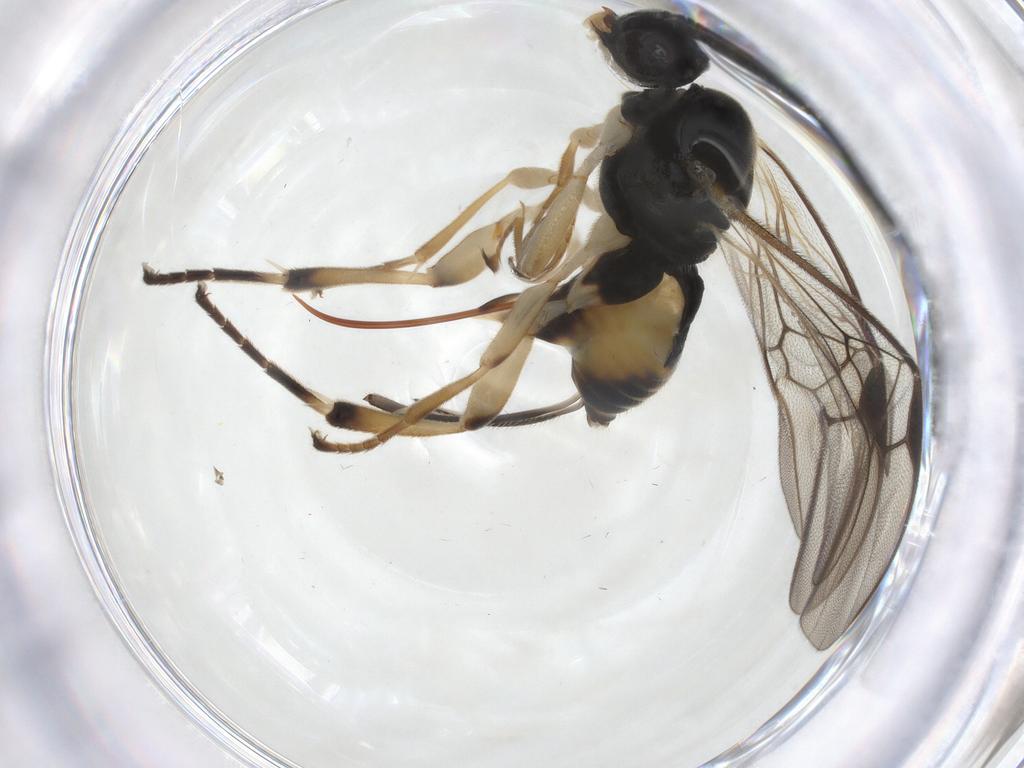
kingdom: Animalia
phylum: Arthropoda
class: Insecta
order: Hymenoptera
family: Braconidae
